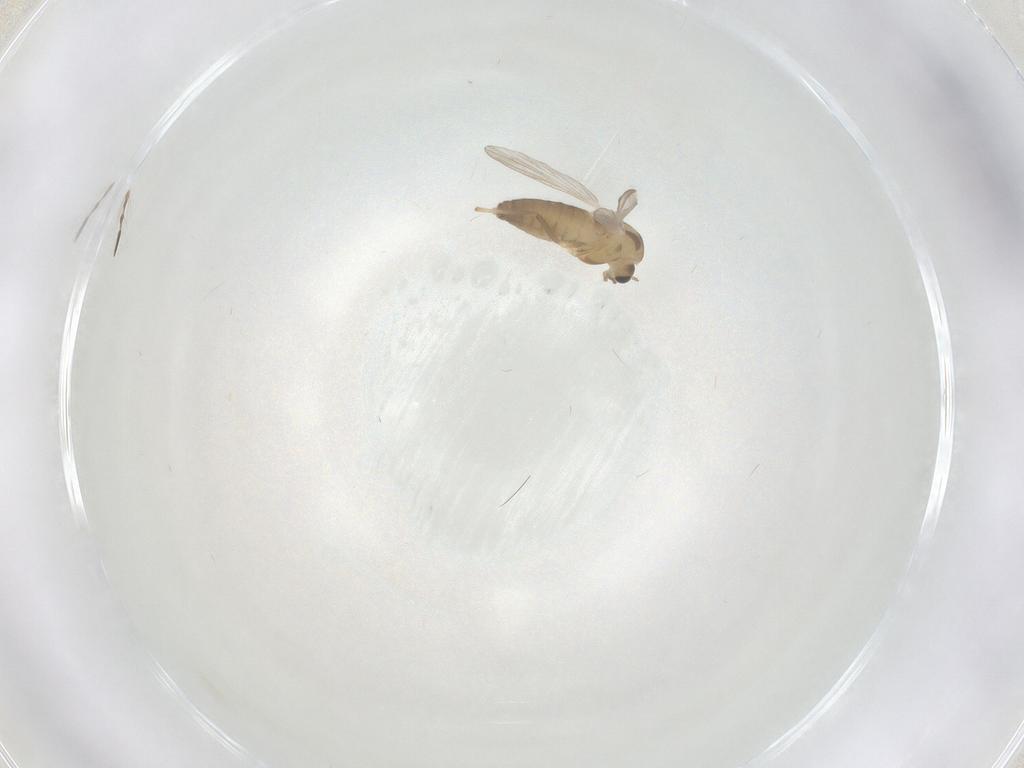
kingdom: Animalia
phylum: Arthropoda
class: Insecta
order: Diptera
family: Chironomidae
